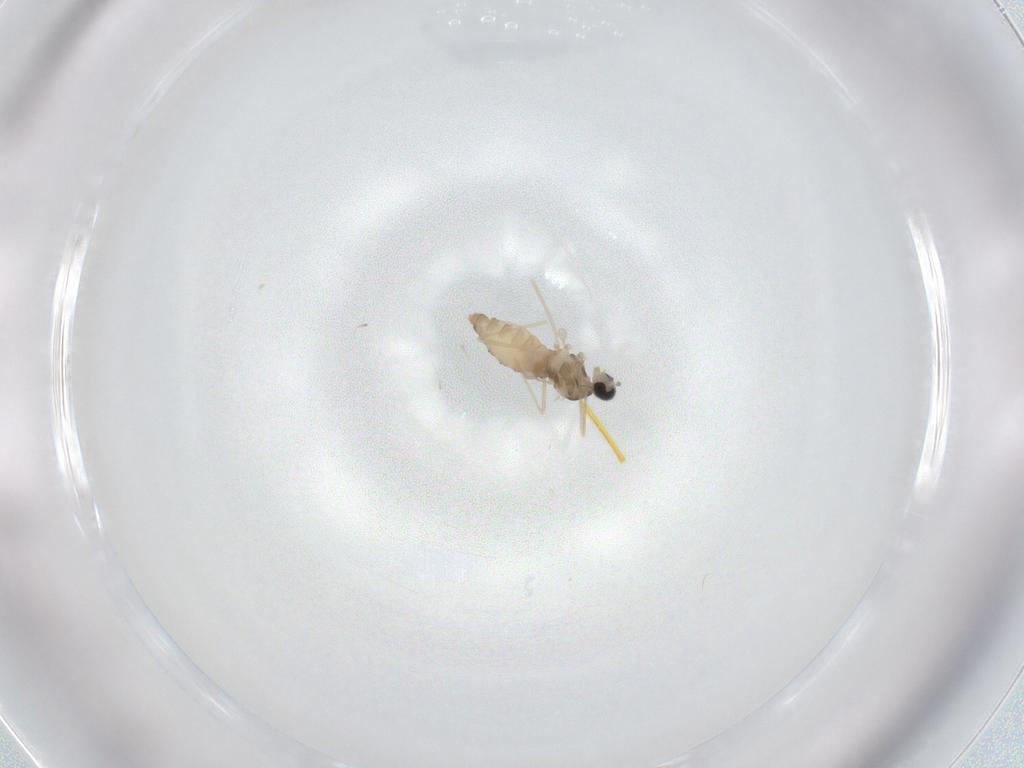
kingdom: Animalia
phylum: Arthropoda
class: Insecta
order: Diptera
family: Cecidomyiidae
